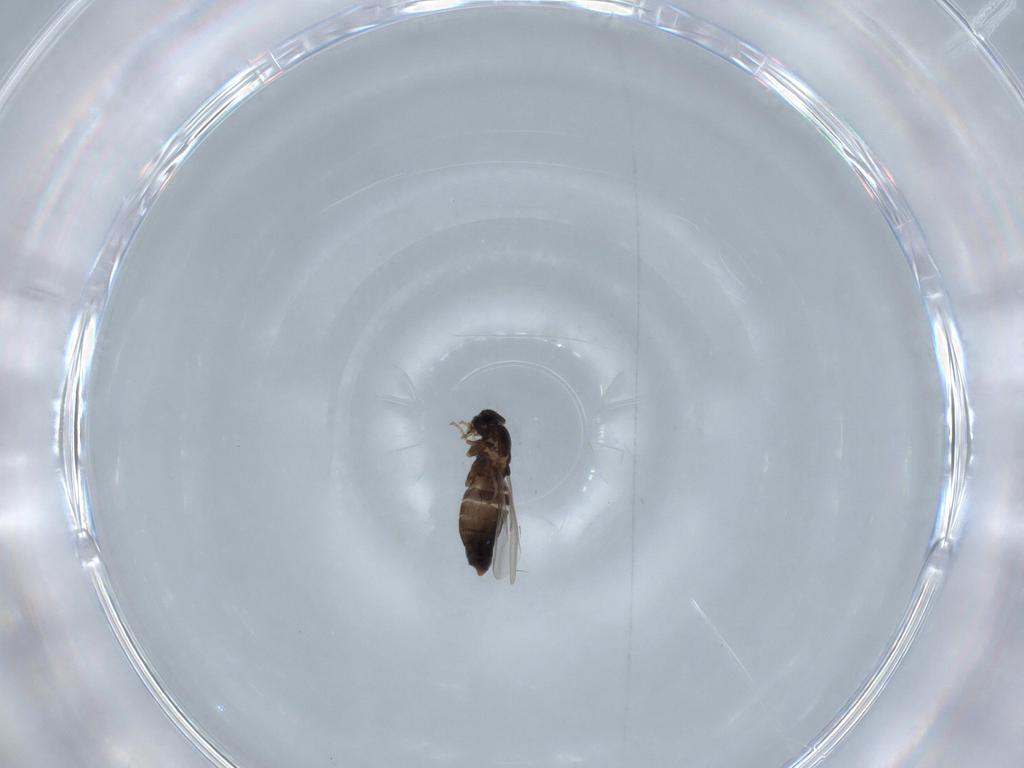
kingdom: Animalia
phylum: Arthropoda
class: Insecta
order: Diptera
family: Scatopsidae
